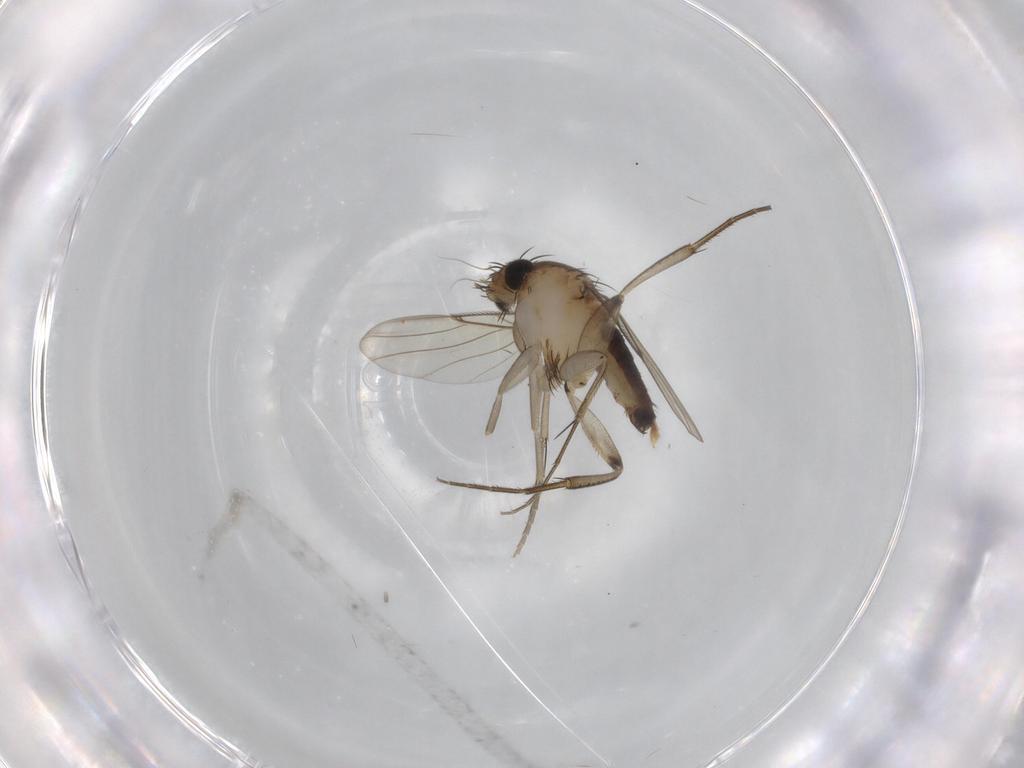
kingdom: Animalia
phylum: Arthropoda
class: Insecta
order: Diptera
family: Phoridae
